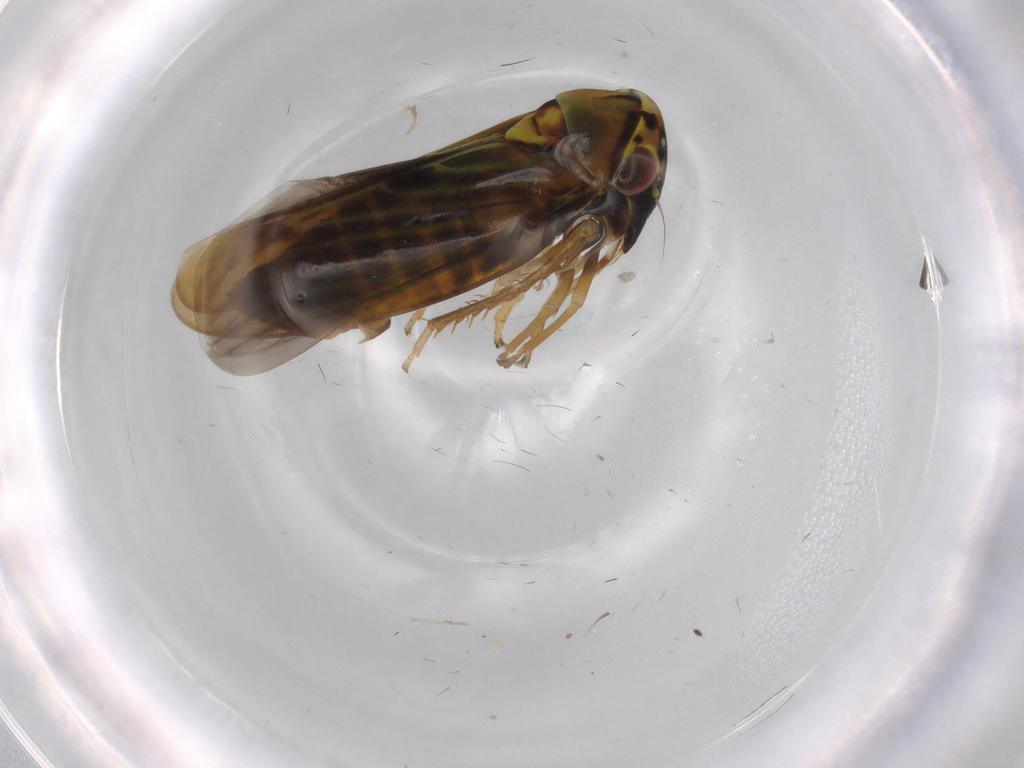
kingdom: Animalia
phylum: Arthropoda
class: Insecta
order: Hemiptera
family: Cicadellidae
